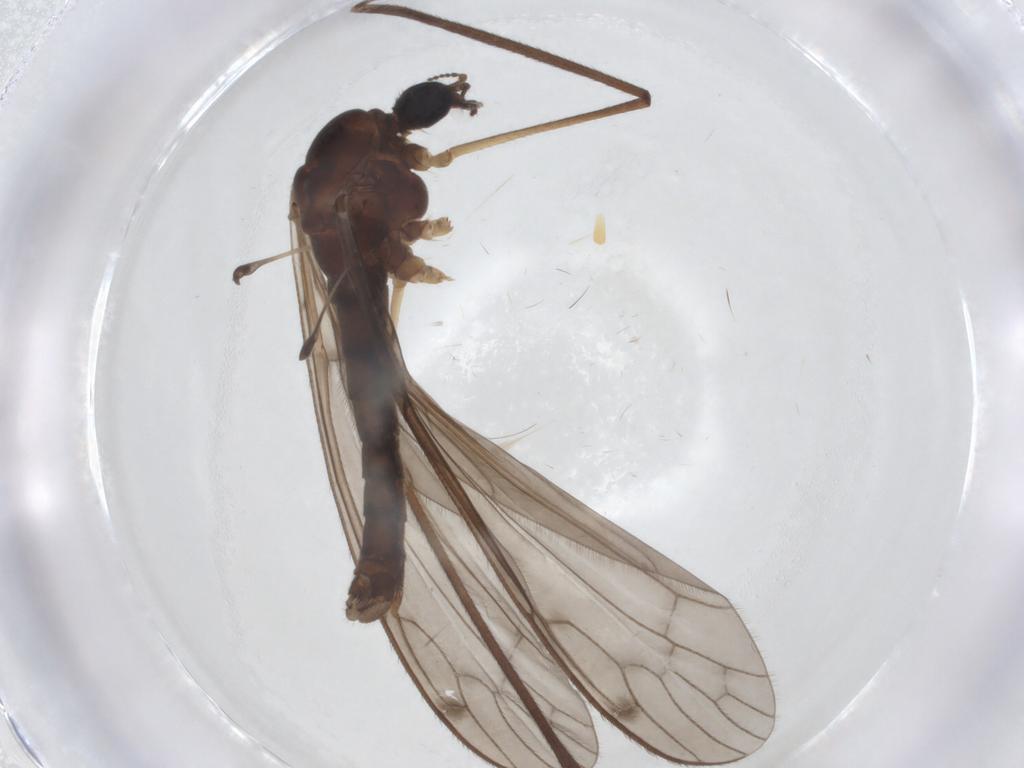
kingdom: Animalia
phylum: Arthropoda
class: Insecta
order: Diptera
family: Limoniidae
